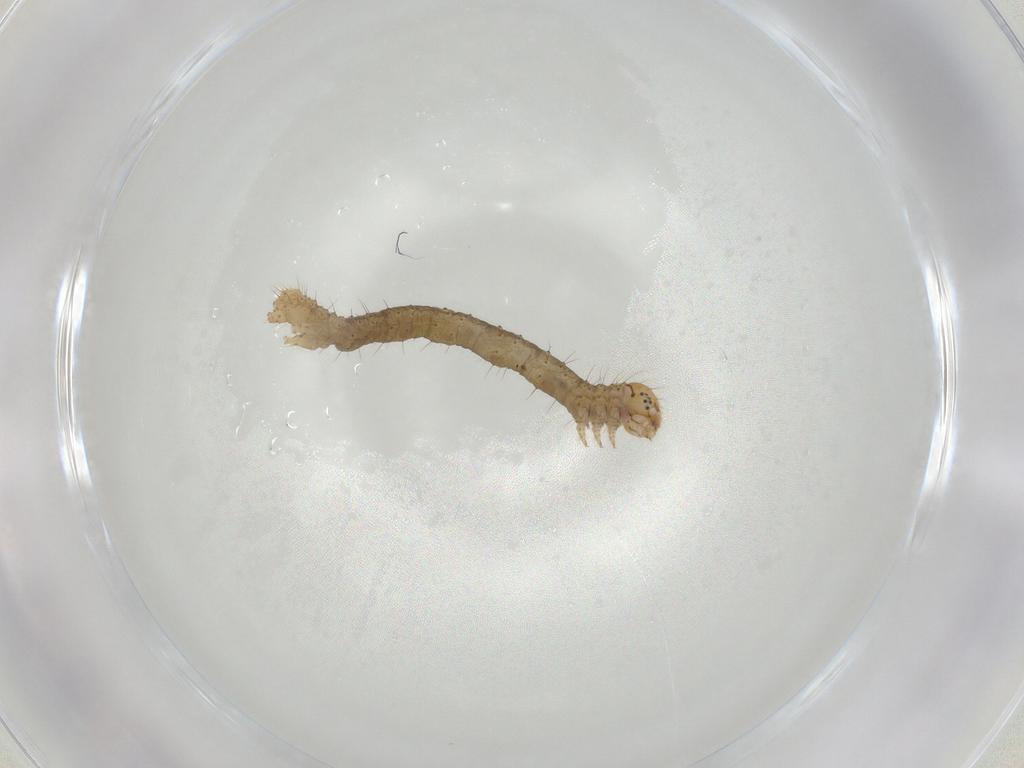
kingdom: Animalia
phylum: Arthropoda
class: Insecta
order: Lepidoptera
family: Geometridae
